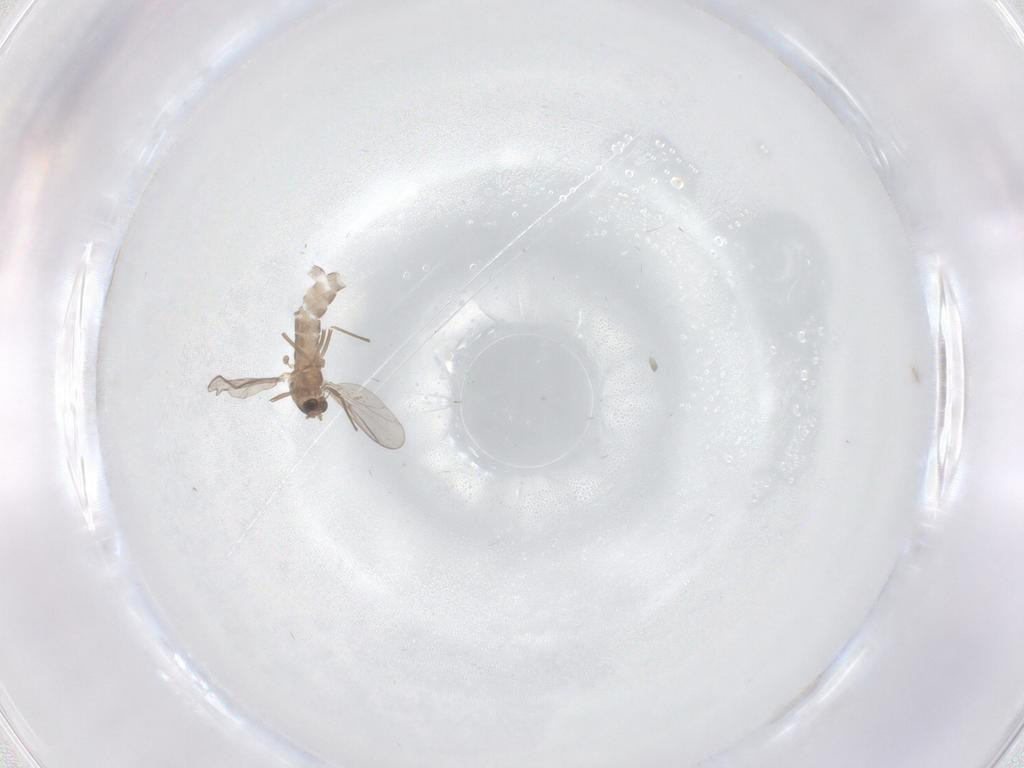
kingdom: Animalia
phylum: Arthropoda
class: Insecta
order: Diptera
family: Chironomidae
